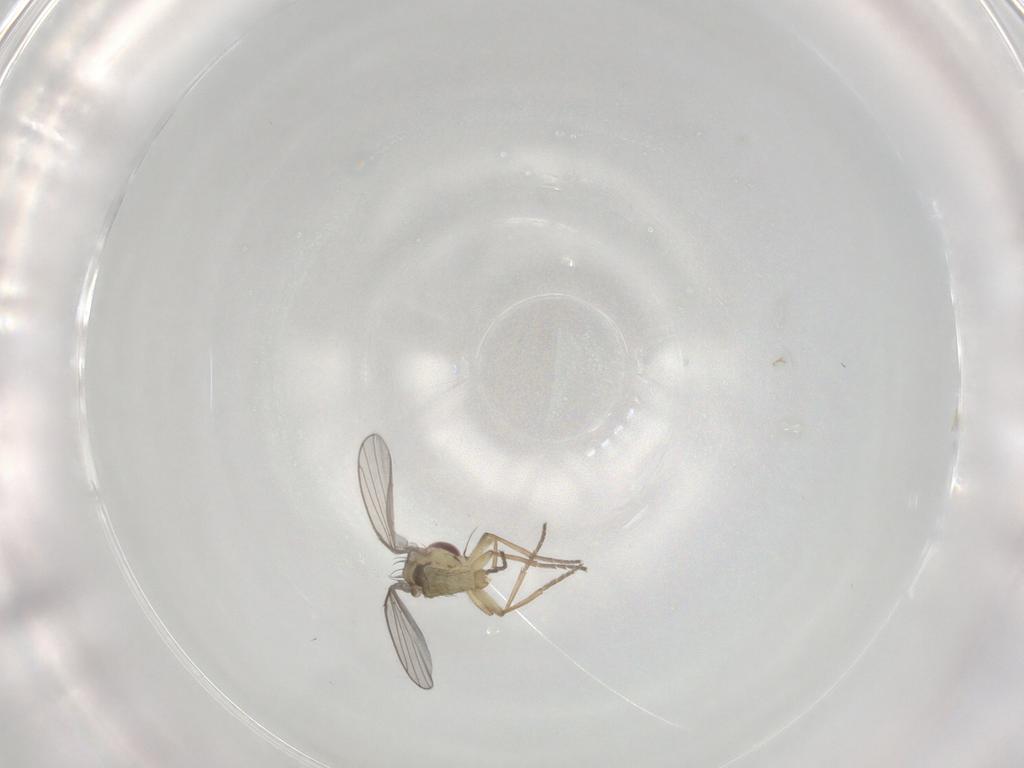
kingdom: Animalia
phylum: Arthropoda
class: Insecta
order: Diptera
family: Agromyzidae
